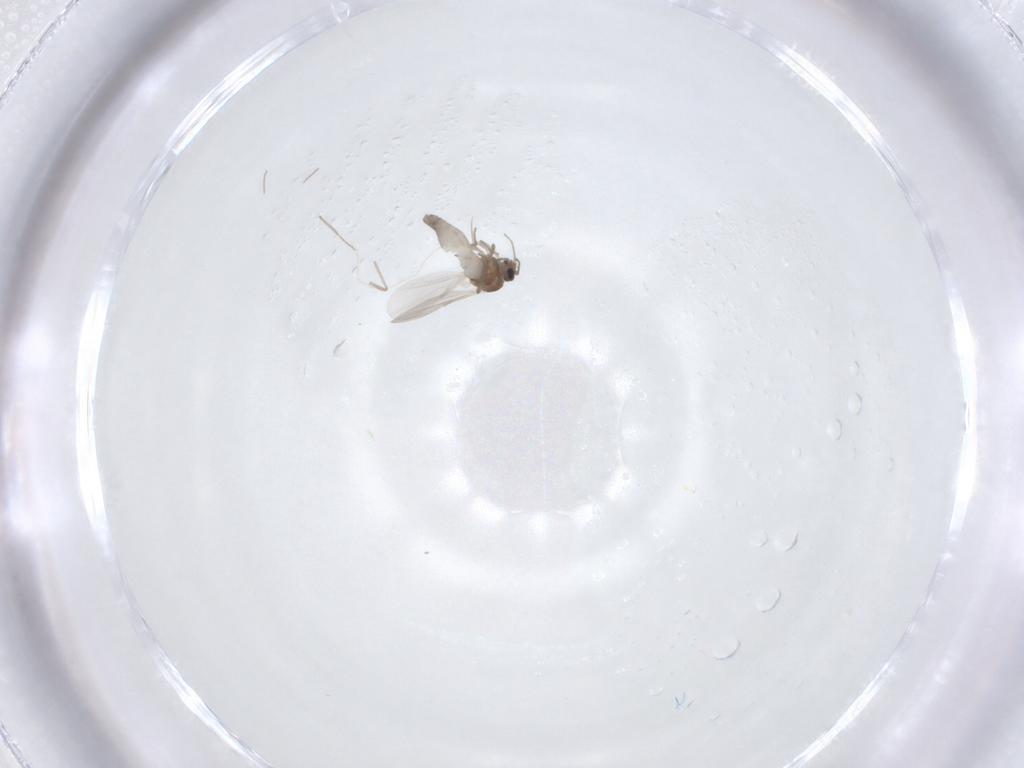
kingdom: Animalia
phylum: Arthropoda
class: Insecta
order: Diptera
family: Ceratopogonidae
